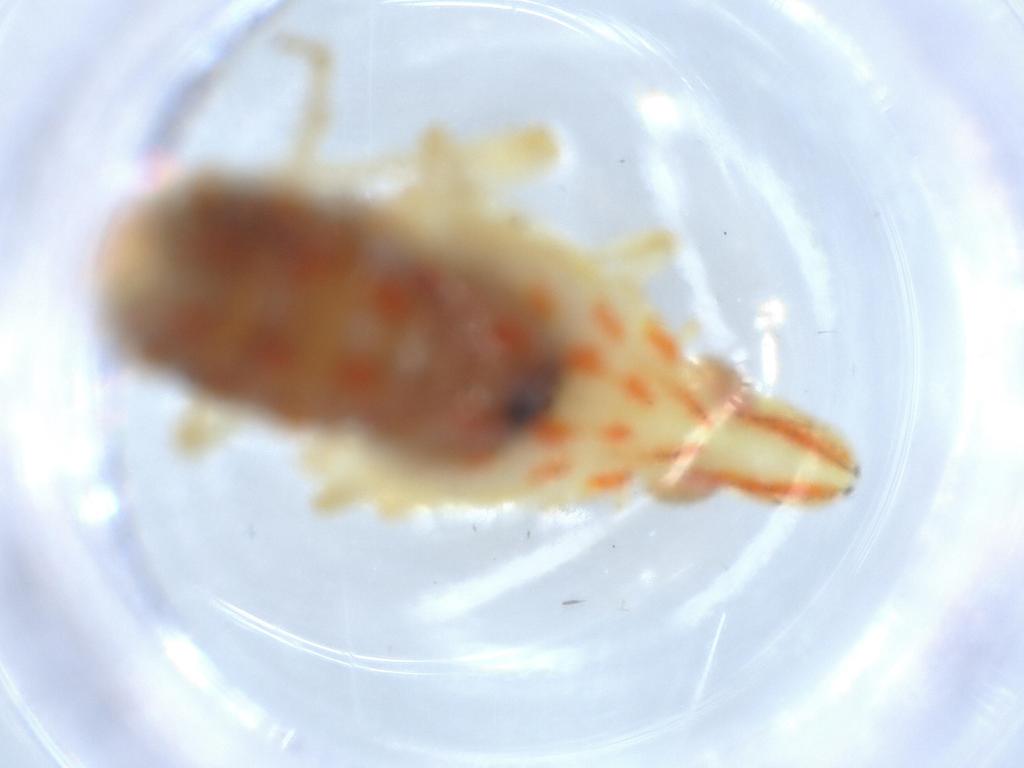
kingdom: Animalia
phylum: Arthropoda
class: Insecta
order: Hemiptera
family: Tropiduchidae
